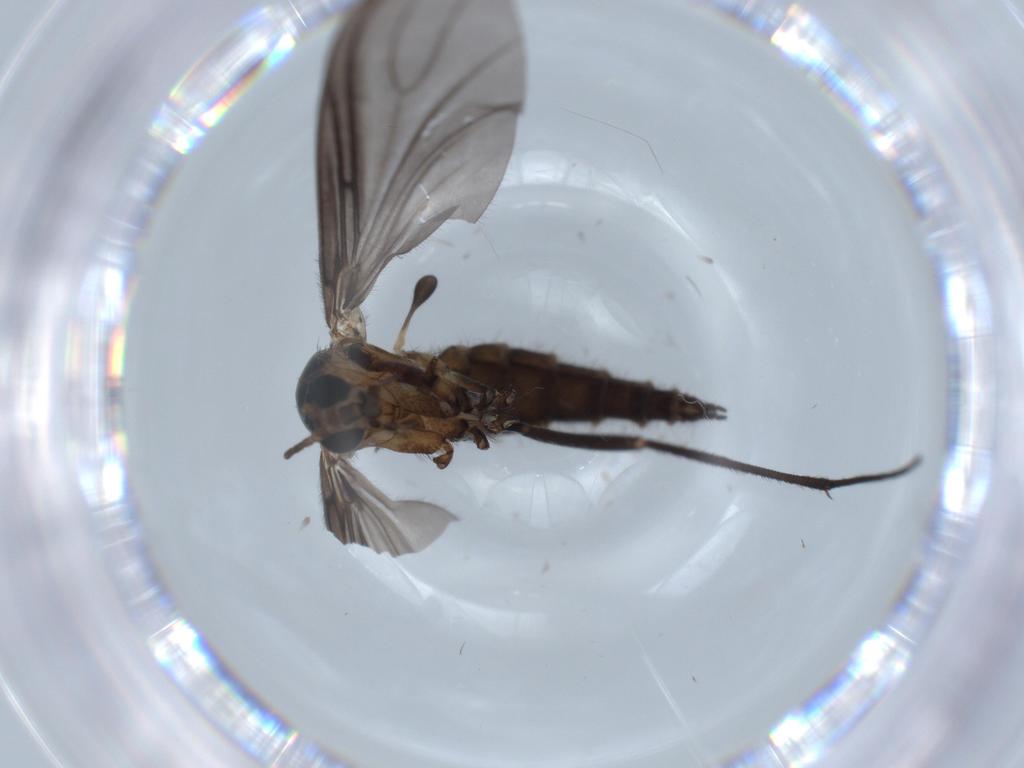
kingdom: Animalia
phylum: Arthropoda
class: Insecta
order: Diptera
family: Sciaridae
